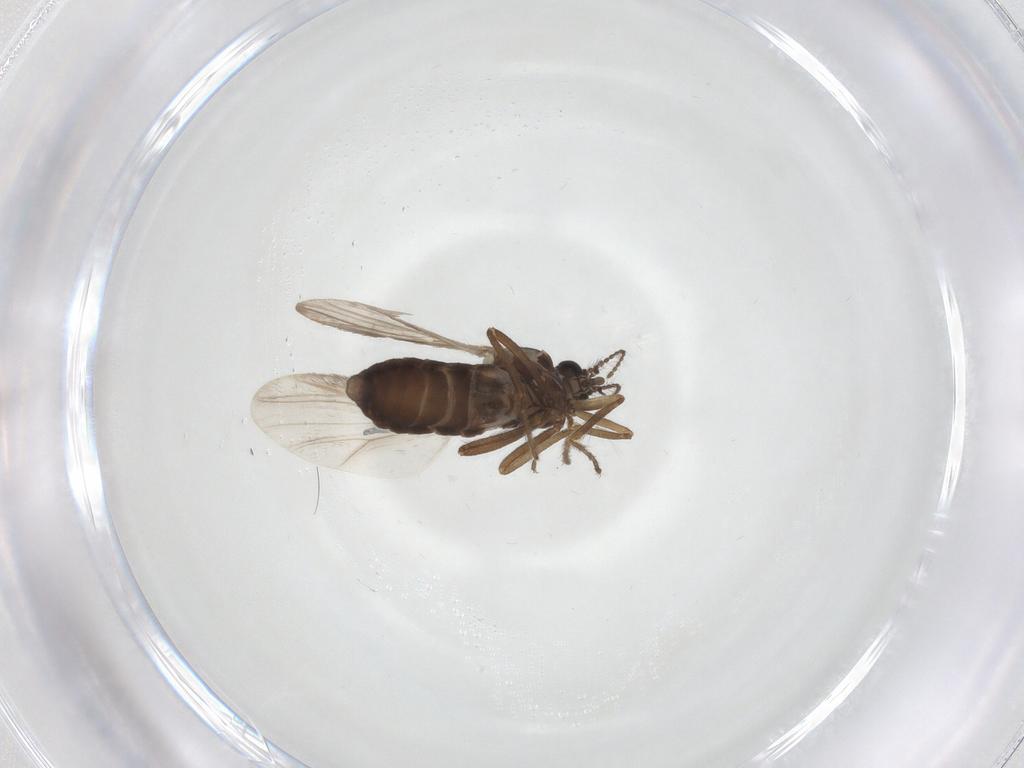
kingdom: Animalia
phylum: Arthropoda
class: Insecta
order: Diptera
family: Ceratopogonidae
